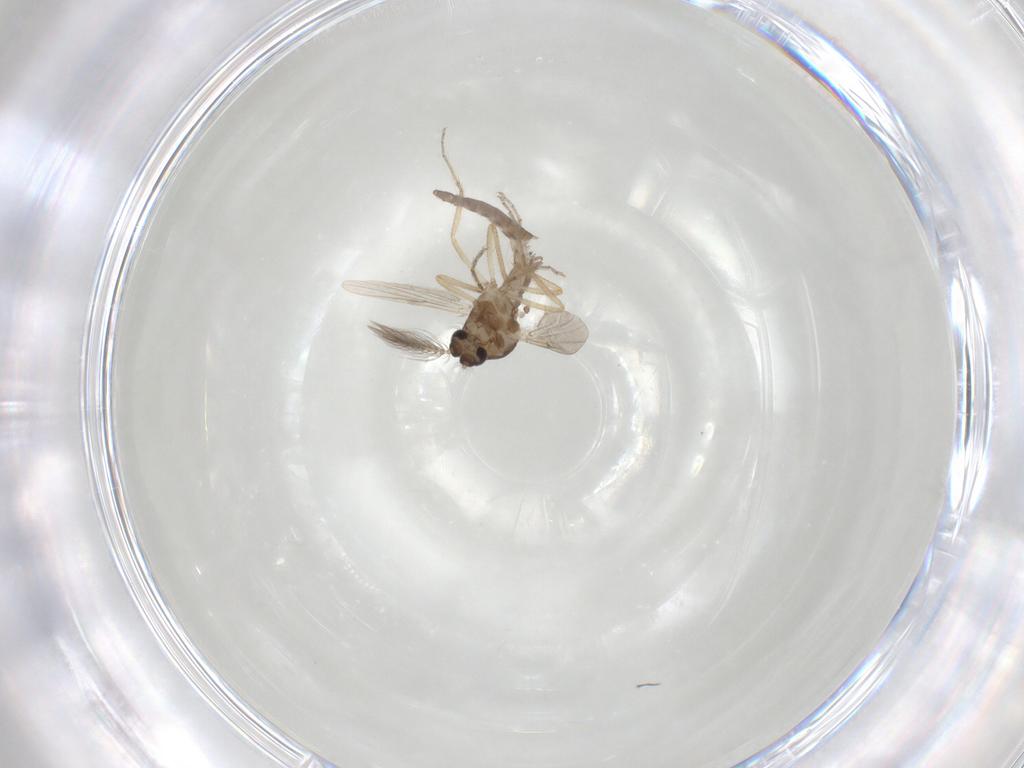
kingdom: Animalia
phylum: Arthropoda
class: Insecta
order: Diptera
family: Ceratopogonidae
